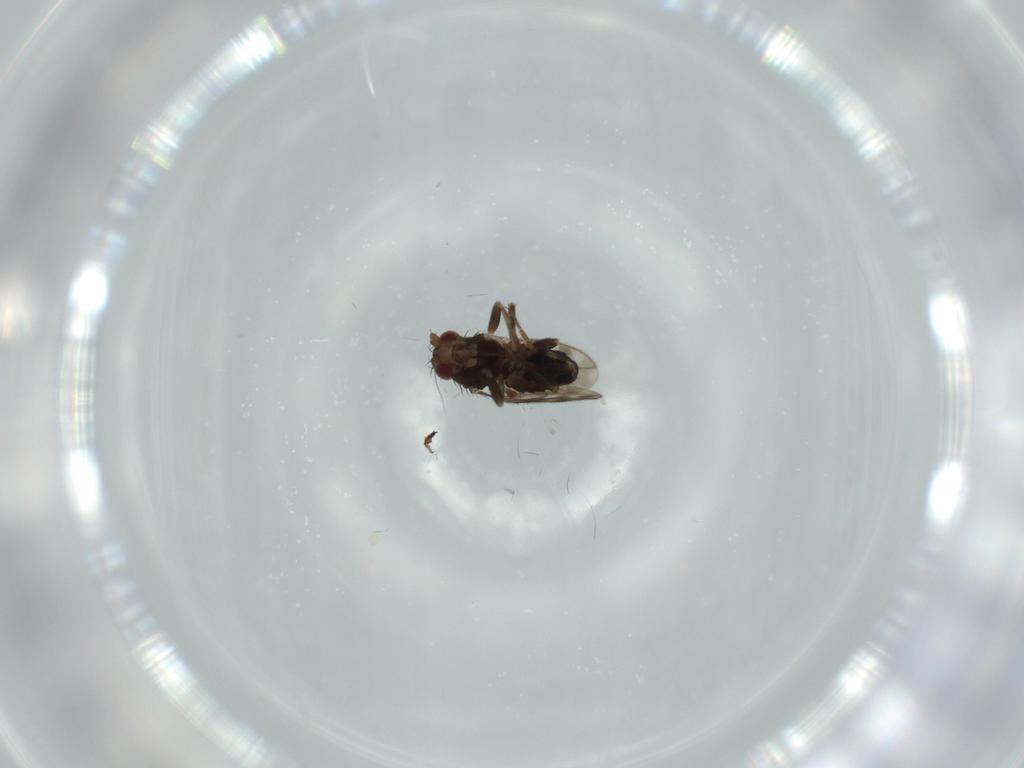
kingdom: Animalia
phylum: Arthropoda
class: Insecta
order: Diptera
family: Sphaeroceridae
